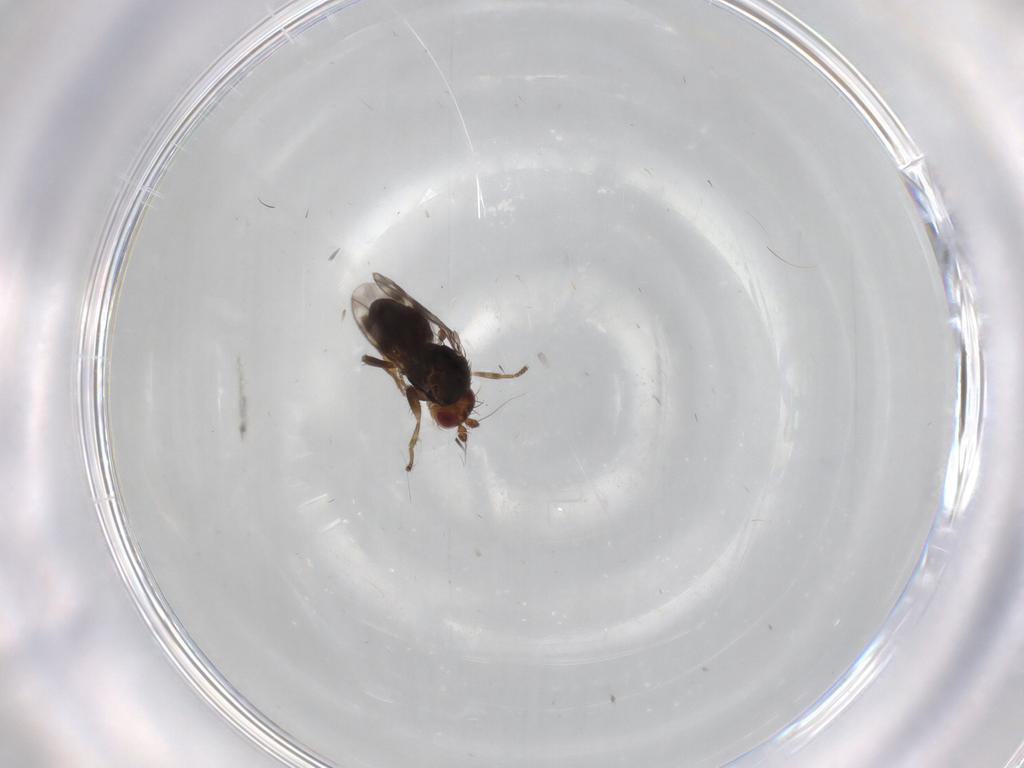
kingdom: Animalia
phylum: Arthropoda
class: Insecta
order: Diptera
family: Sphaeroceridae
